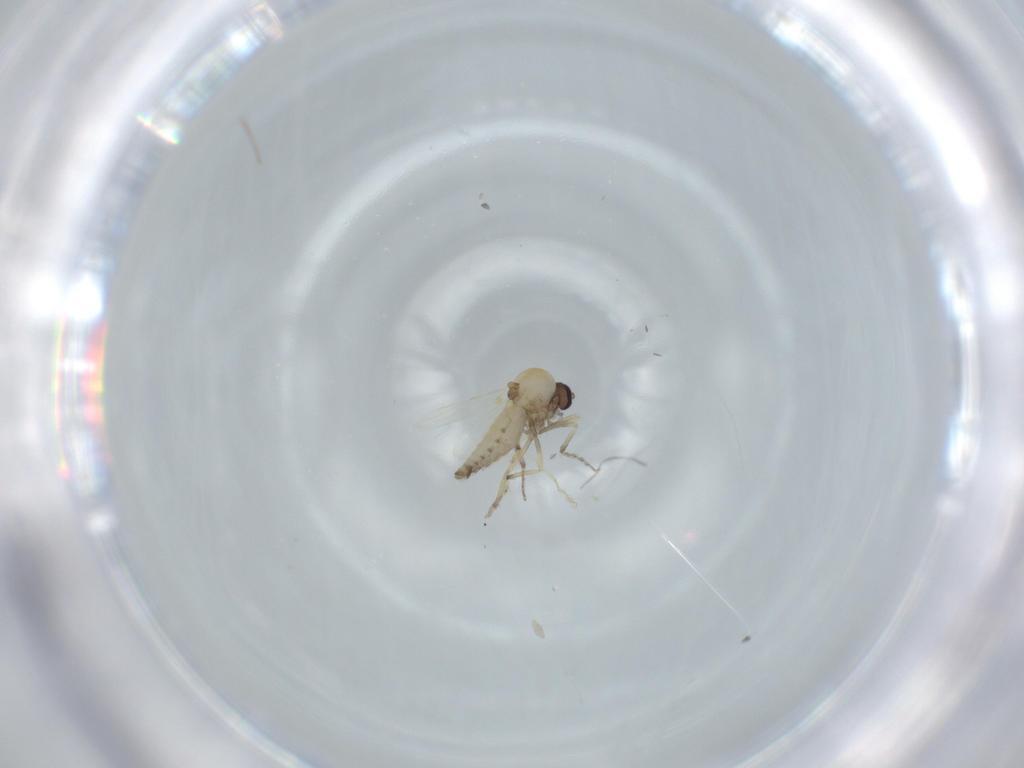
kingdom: Animalia
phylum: Arthropoda
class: Insecta
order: Diptera
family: Ceratopogonidae
